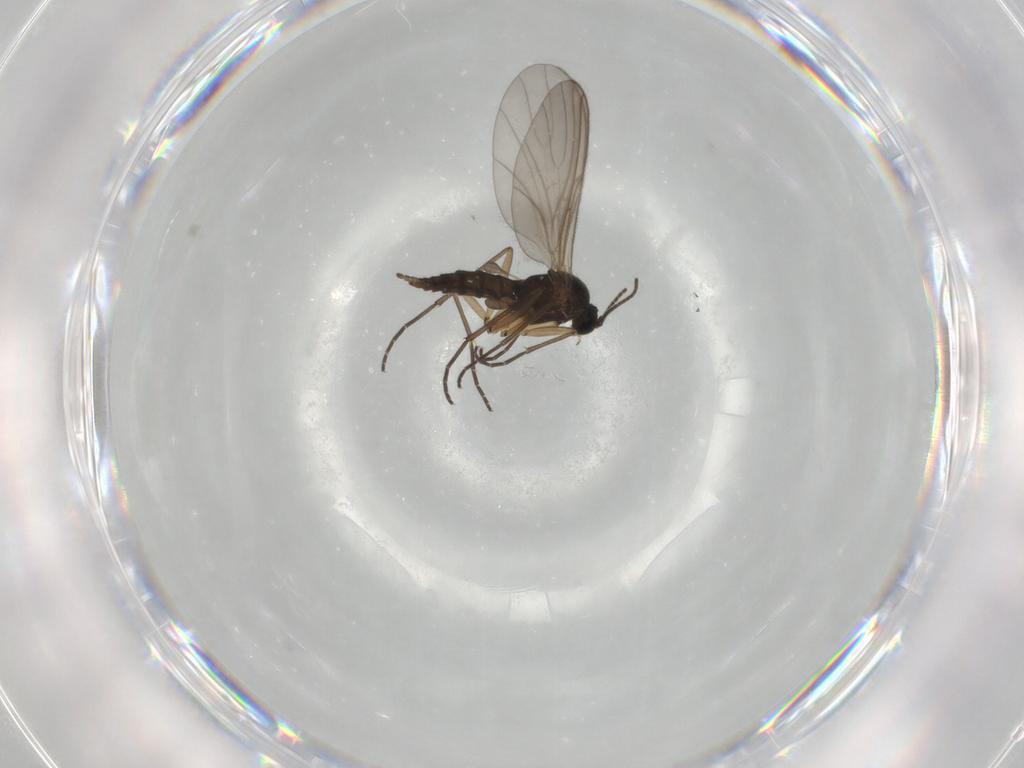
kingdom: Animalia
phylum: Arthropoda
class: Insecta
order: Diptera
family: Sciaridae
